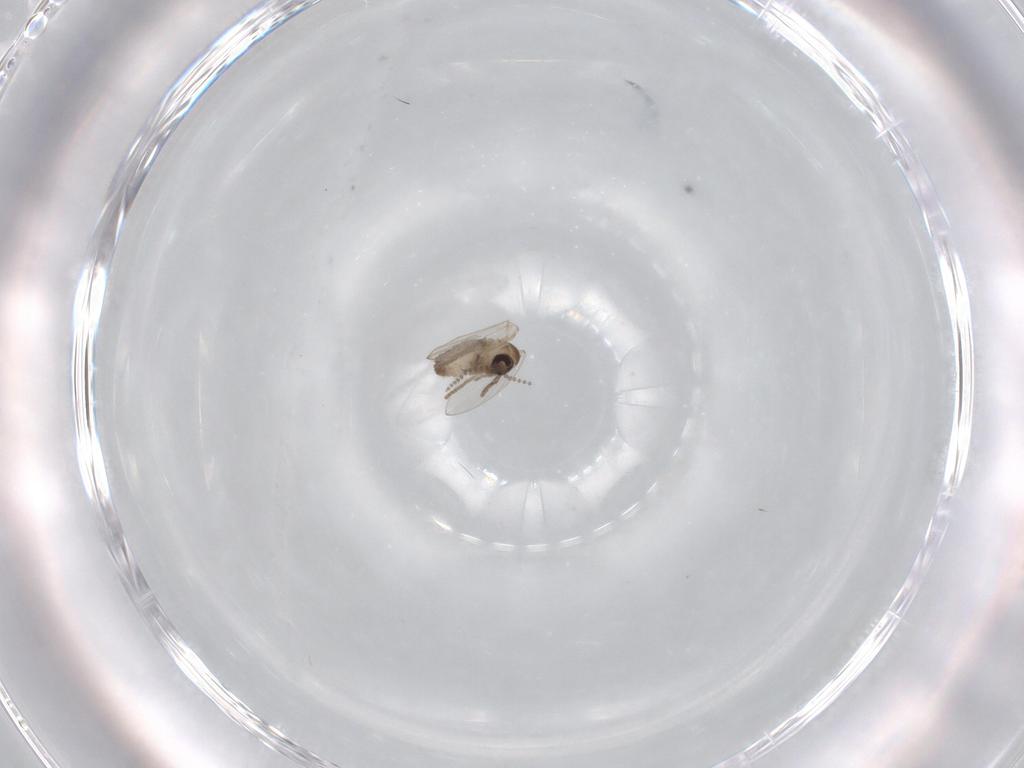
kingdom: Animalia
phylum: Arthropoda
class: Insecta
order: Diptera
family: Psychodidae
